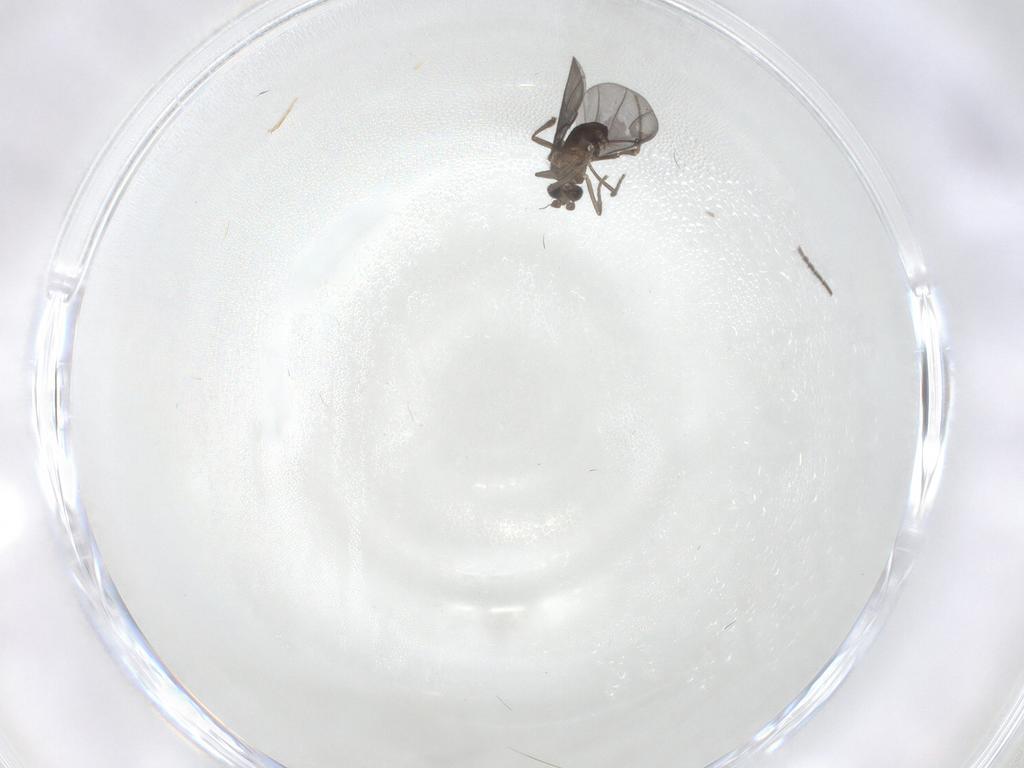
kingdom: Animalia
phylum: Arthropoda
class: Insecta
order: Diptera
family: Phoridae
